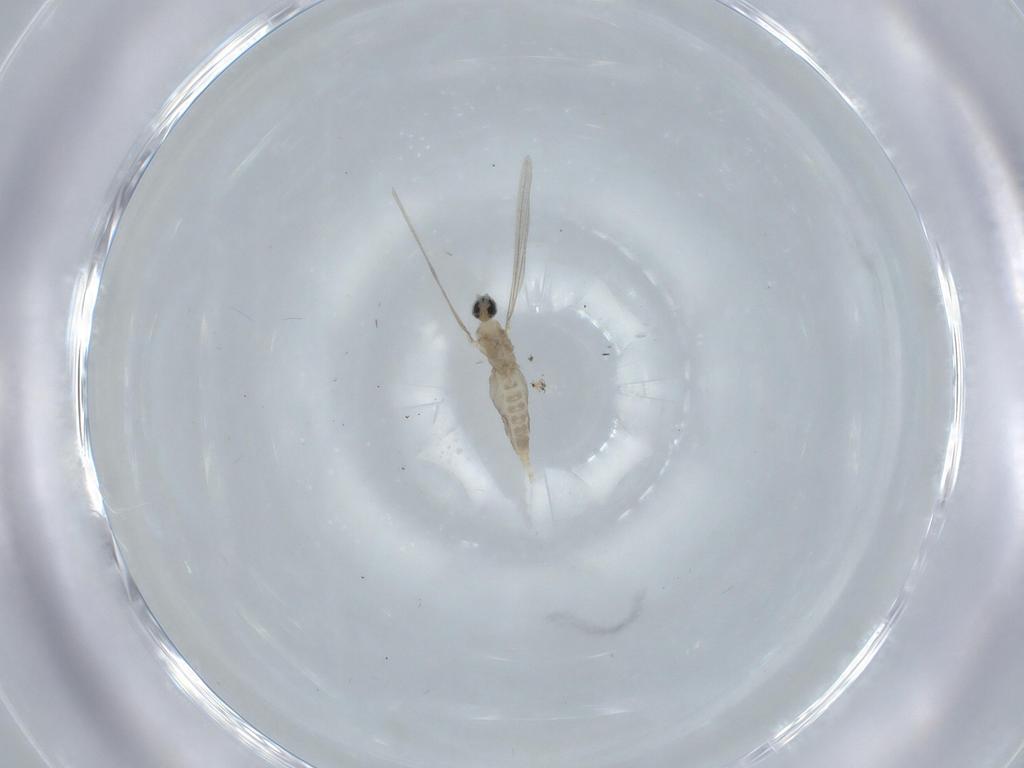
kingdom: Animalia
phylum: Arthropoda
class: Insecta
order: Diptera
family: Cecidomyiidae
